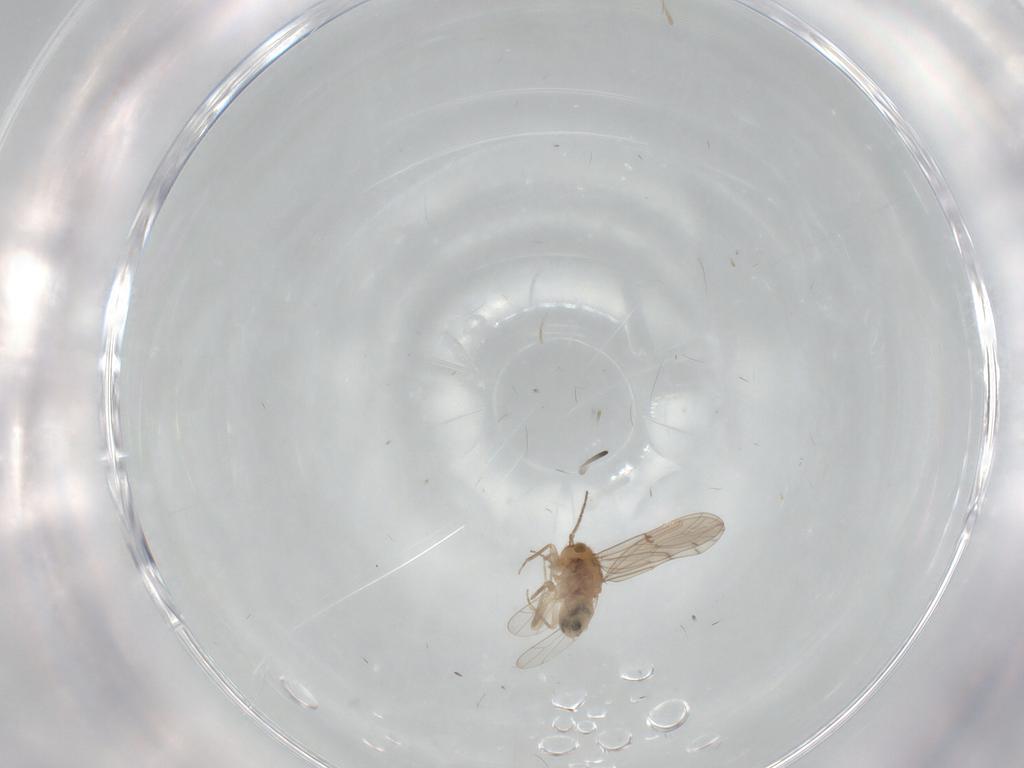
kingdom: Animalia
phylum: Arthropoda
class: Insecta
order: Psocodea
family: Ectopsocidae
